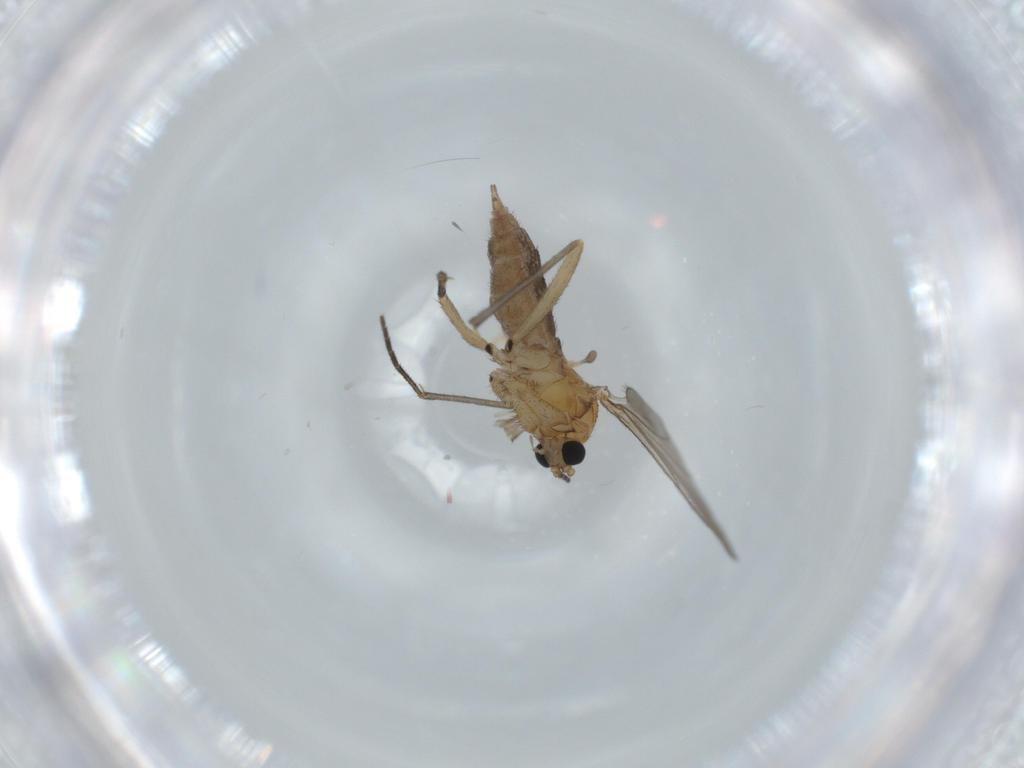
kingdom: Animalia
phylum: Arthropoda
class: Insecta
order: Diptera
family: Sciaridae
